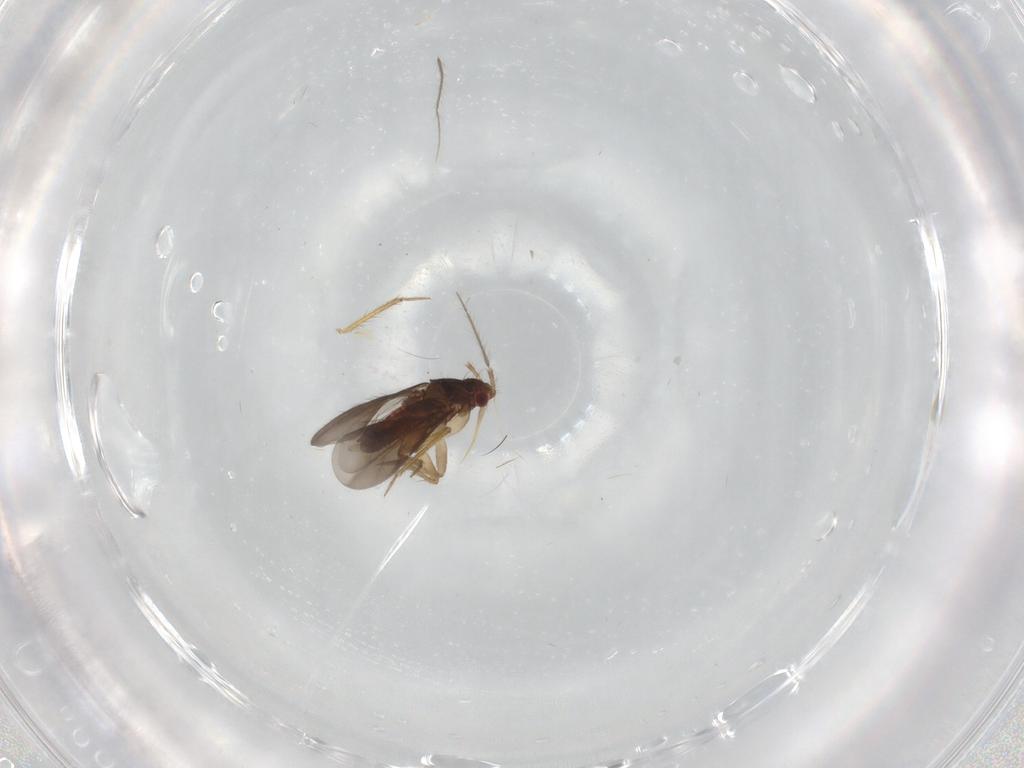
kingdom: Animalia
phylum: Arthropoda
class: Insecta
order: Hemiptera
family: Ceratocombidae
